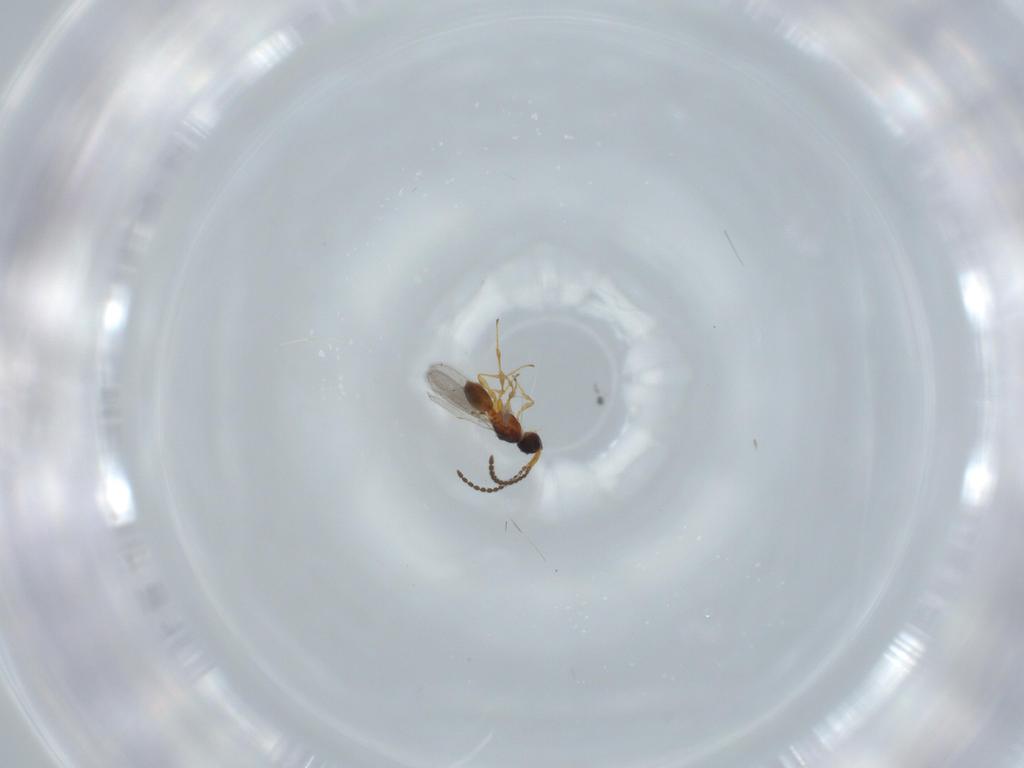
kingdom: Animalia
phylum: Arthropoda
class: Insecta
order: Hymenoptera
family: Diapriidae
